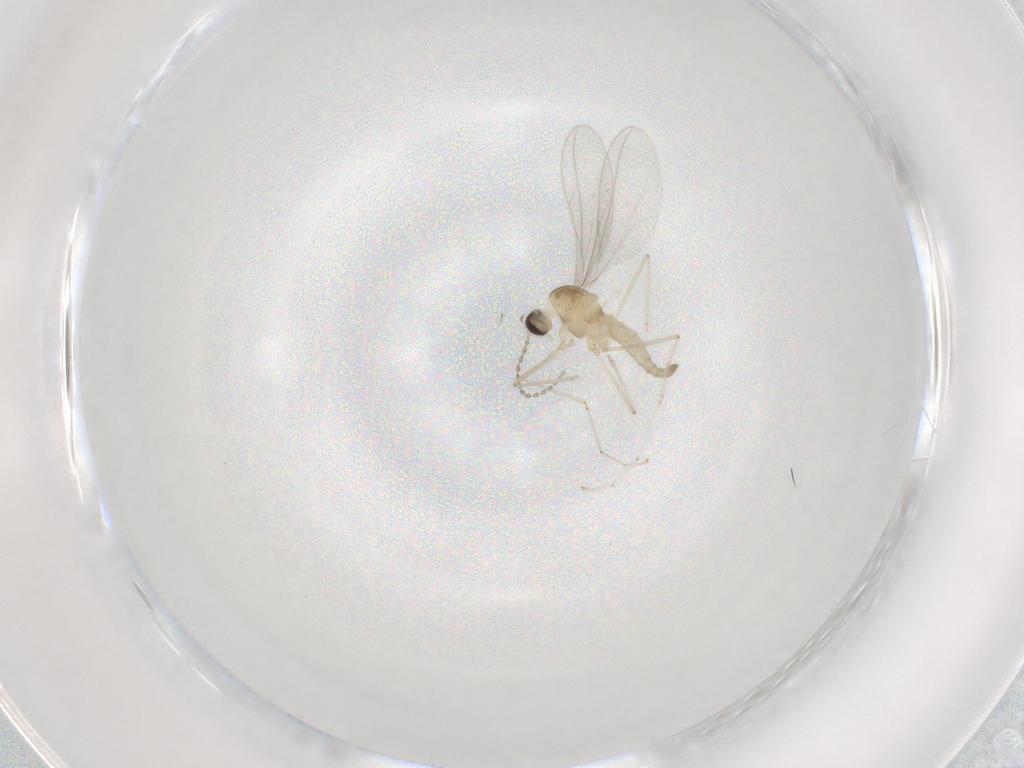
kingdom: Animalia
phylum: Arthropoda
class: Insecta
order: Diptera
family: Cecidomyiidae
